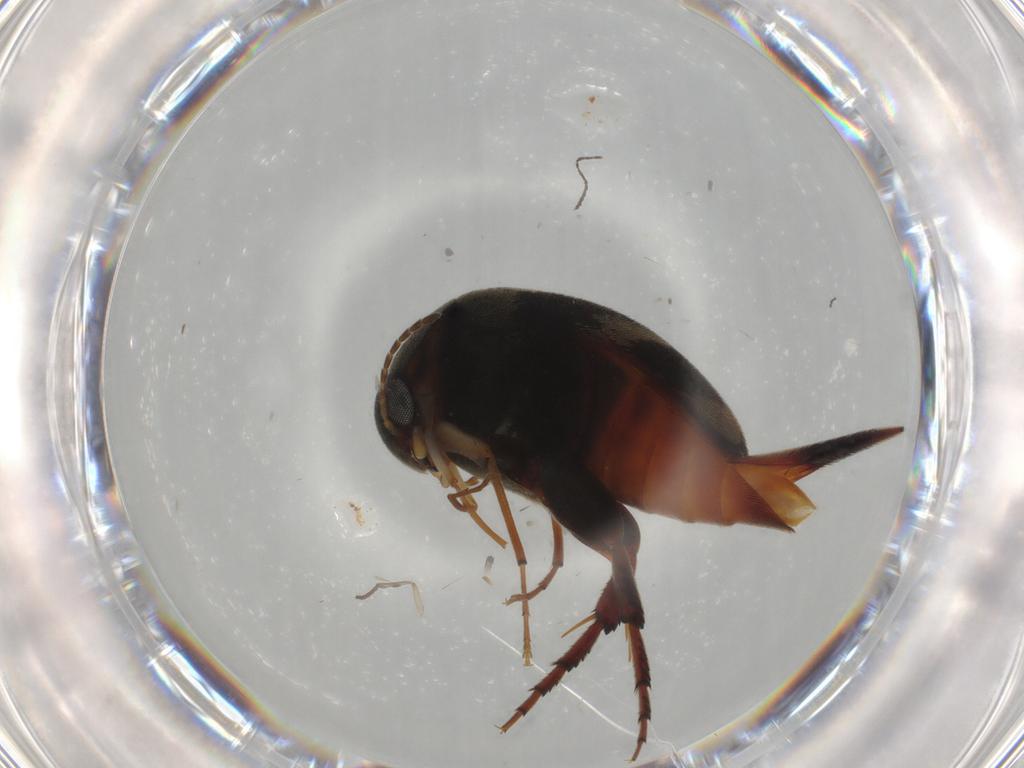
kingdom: Animalia
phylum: Arthropoda
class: Insecta
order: Coleoptera
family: Mordellidae
